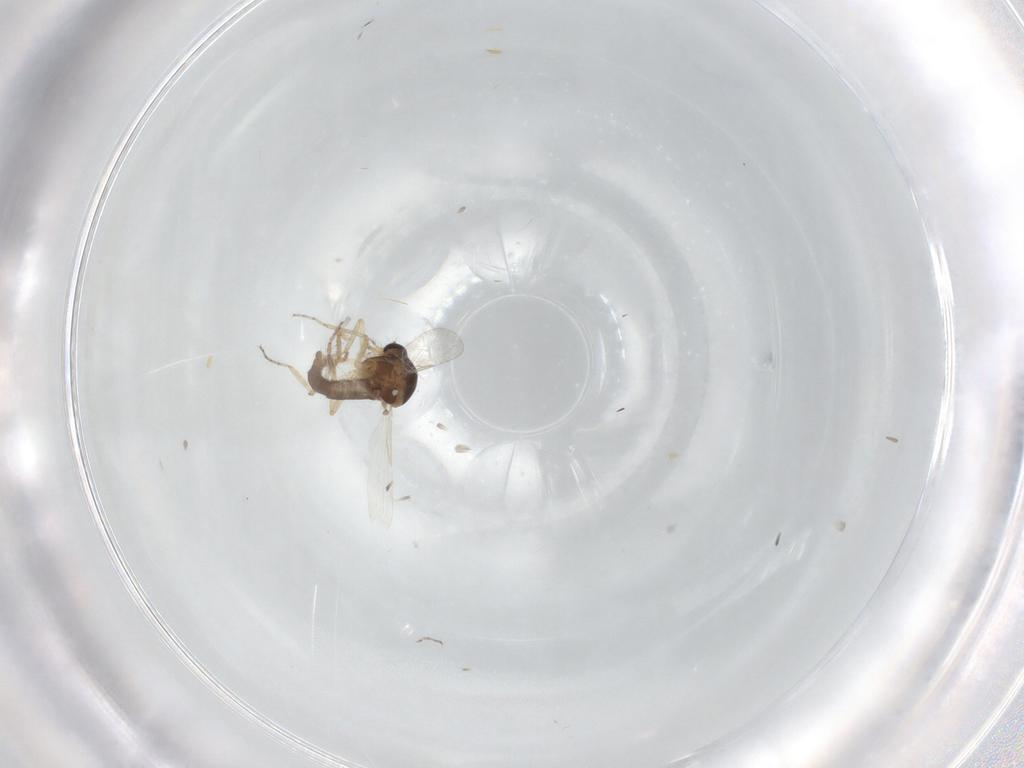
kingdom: Animalia
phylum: Arthropoda
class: Insecta
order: Diptera
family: Ceratopogonidae
